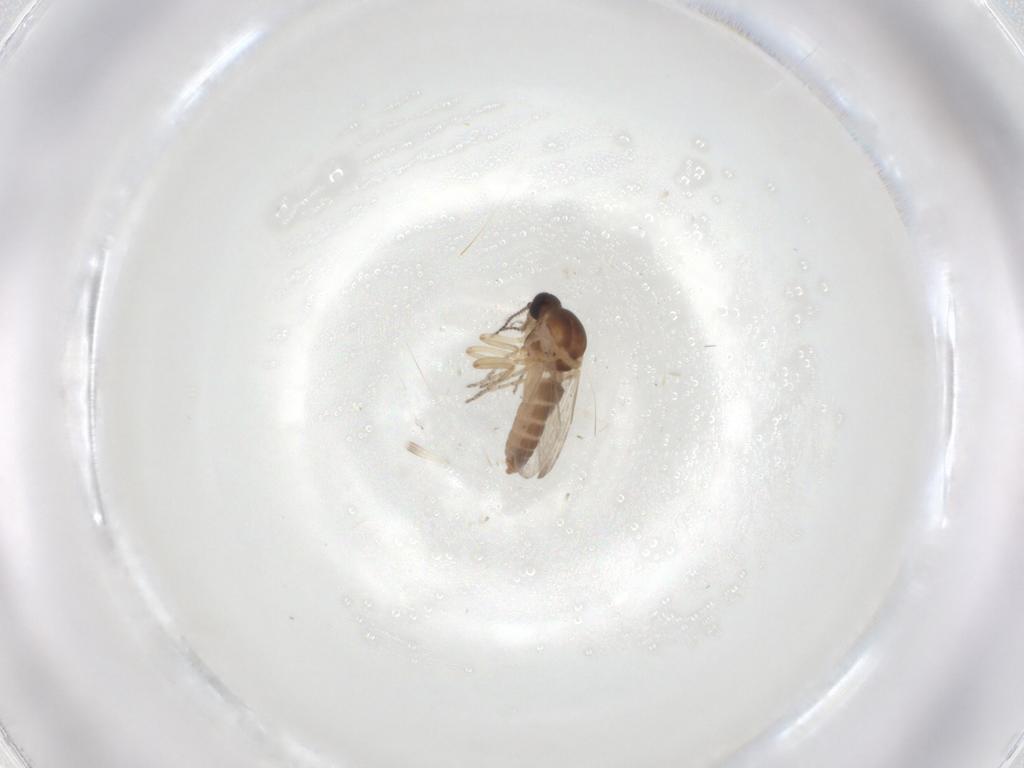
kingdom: Animalia
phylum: Arthropoda
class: Insecta
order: Diptera
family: Ceratopogonidae
